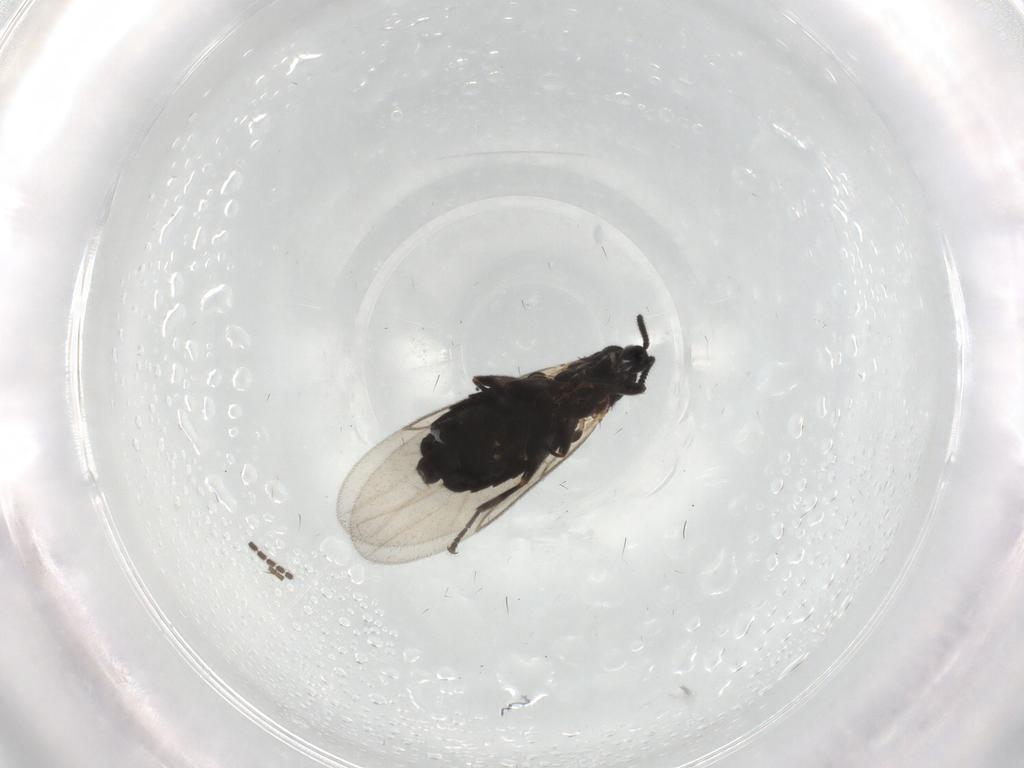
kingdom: Animalia
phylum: Arthropoda
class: Insecta
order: Diptera
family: Scatopsidae
